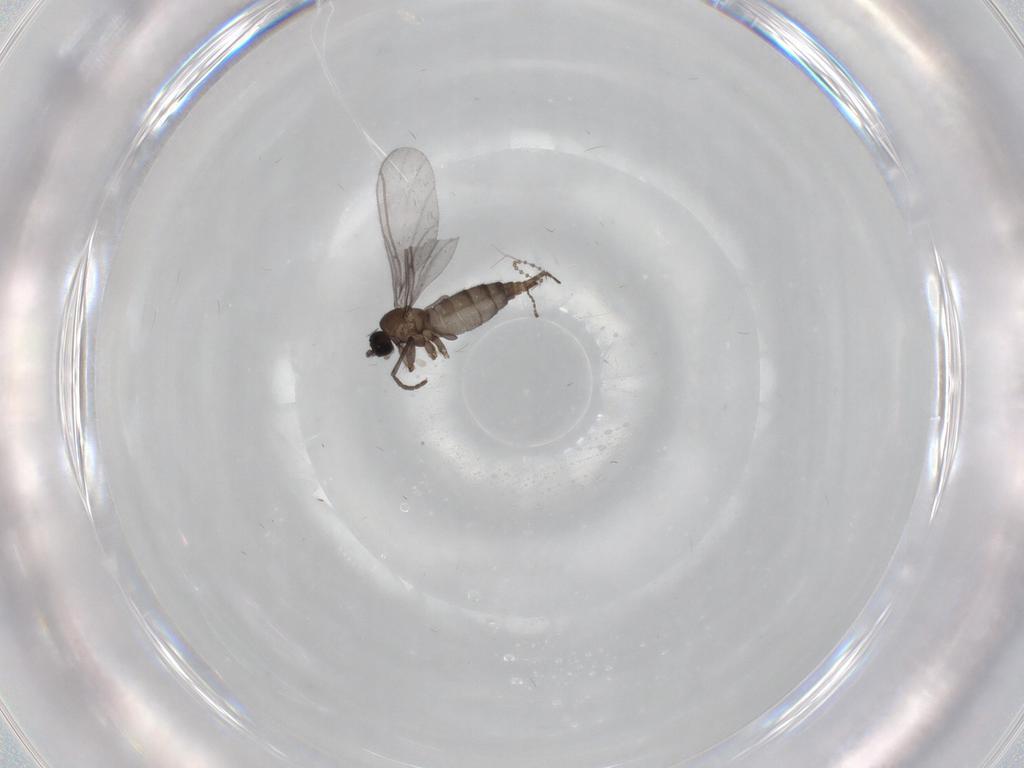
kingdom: Animalia
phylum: Arthropoda
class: Insecta
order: Diptera
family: Sciaridae
